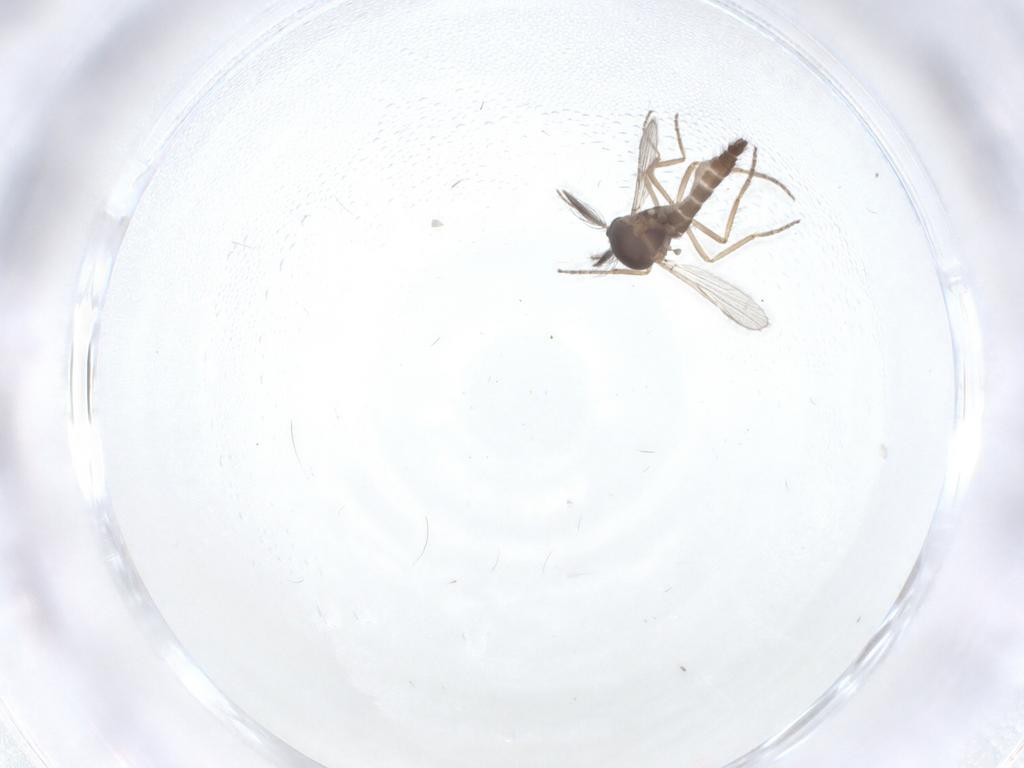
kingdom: Animalia
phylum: Arthropoda
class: Insecta
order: Diptera
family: Ceratopogonidae
